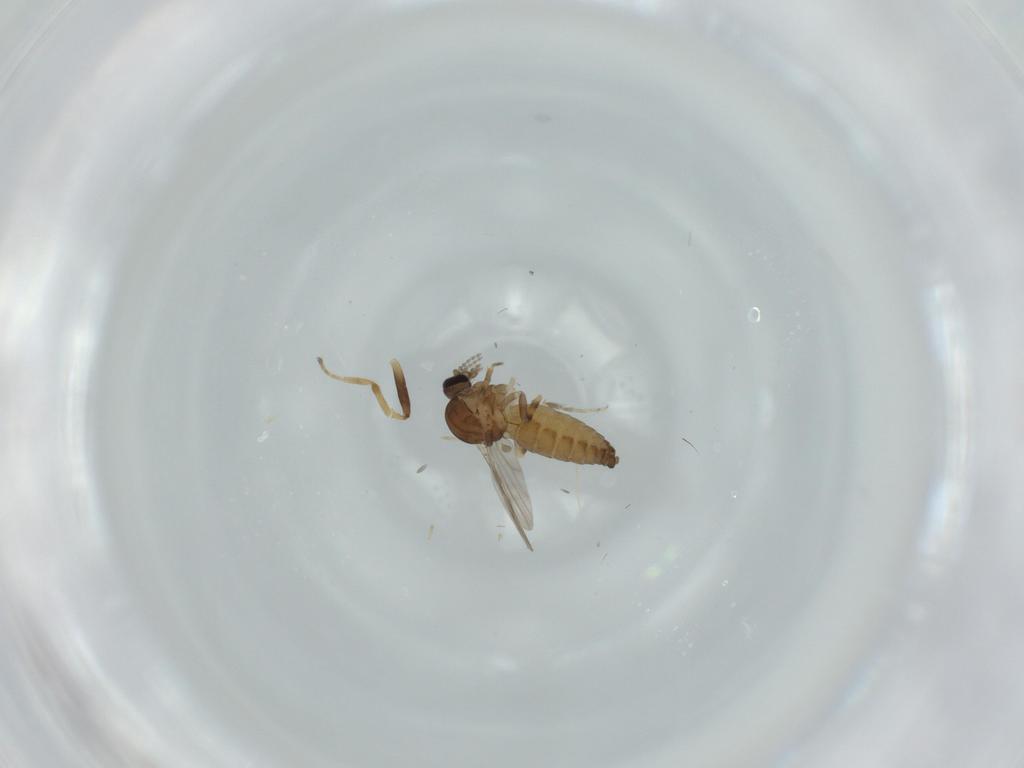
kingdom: Animalia
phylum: Arthropoda
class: Insecta
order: Diptera
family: Ceratopogonidae
